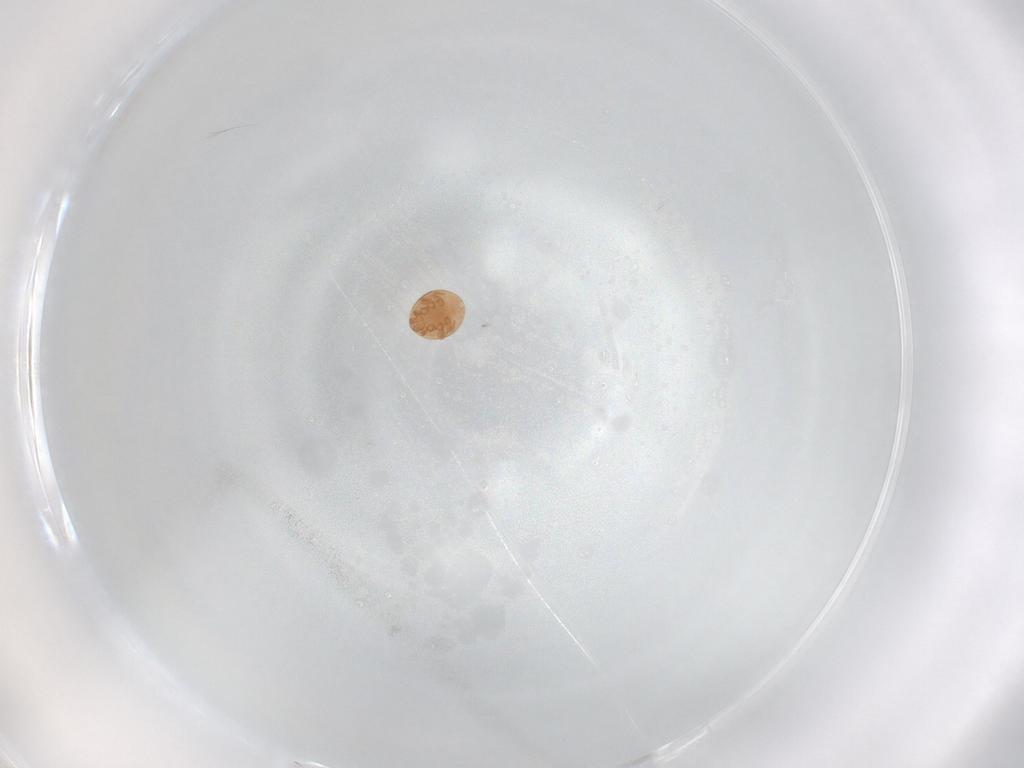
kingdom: Animalia
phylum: Arthropoda
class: Arachnida
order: Mesostigmata
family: Trematuridae
